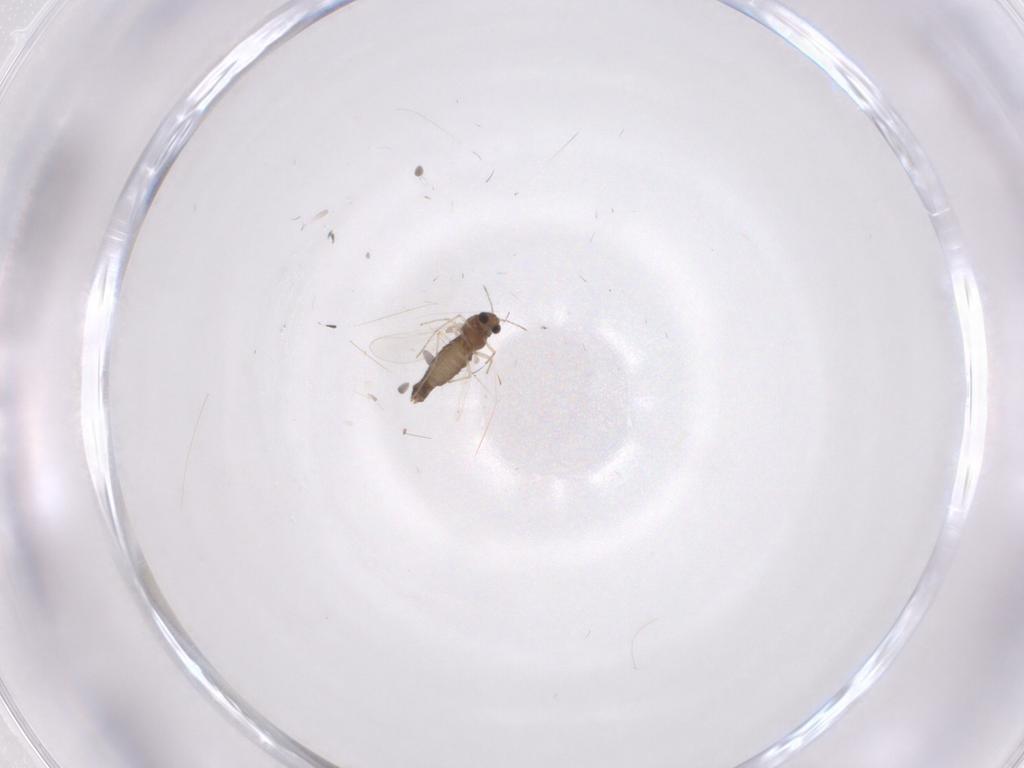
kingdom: Animalia
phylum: Arthropoda
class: Insecta
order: Diptera
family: Chironomidae
